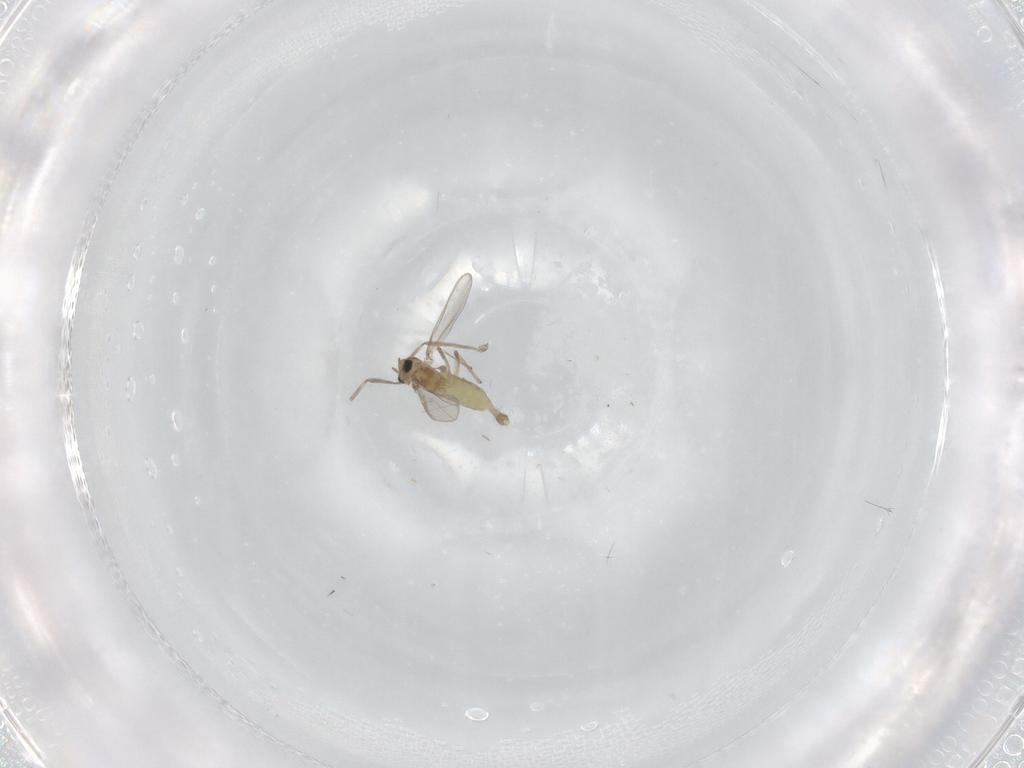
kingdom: Animalia
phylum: Arthropoda
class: Insecta
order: Diptera
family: Chironomidae
